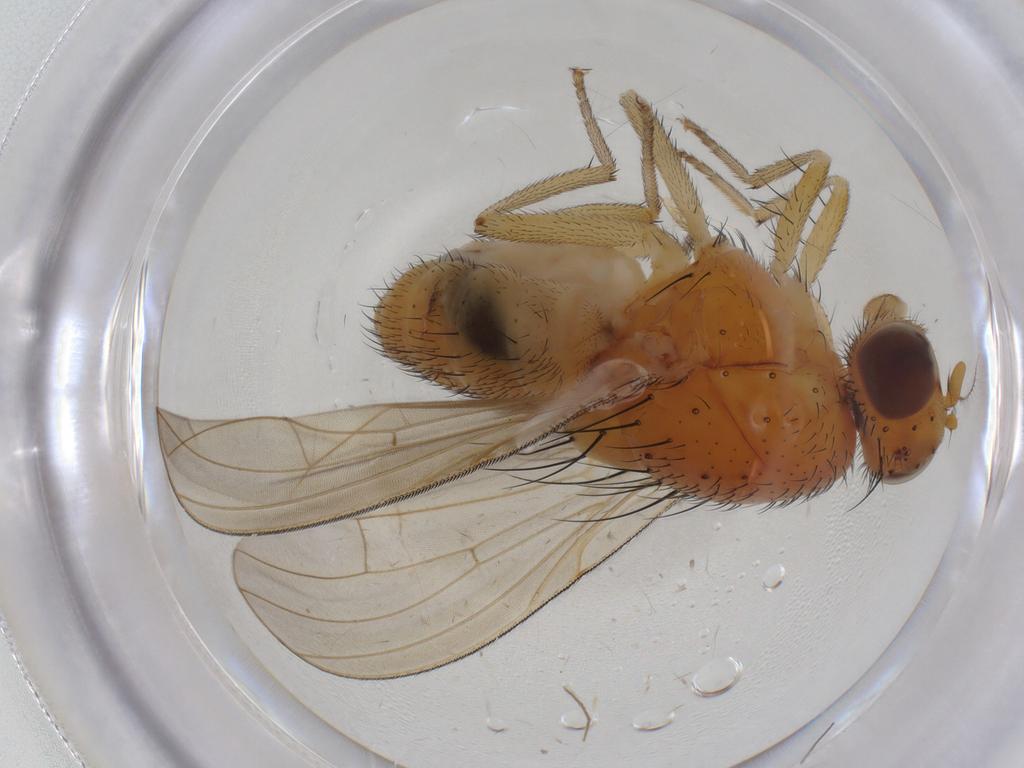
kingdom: Animalia
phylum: Arthropoda
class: Insecta
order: Diptera
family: Sciaridae
